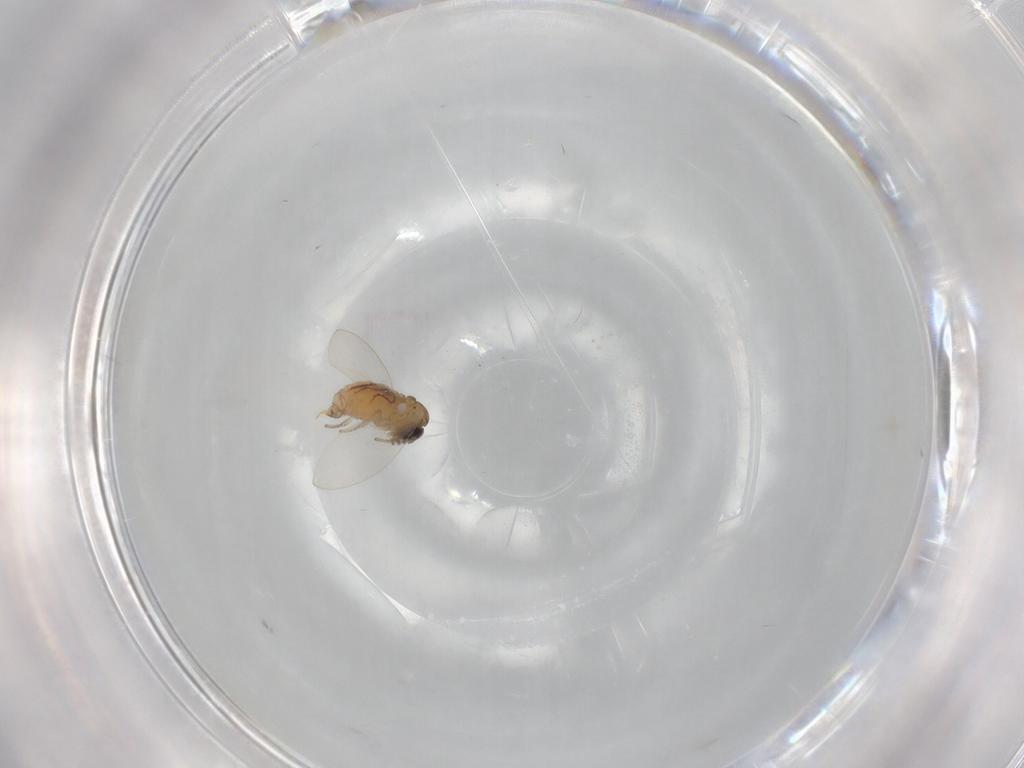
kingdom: Animalia
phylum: Arthropoda
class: Insecta
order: Diptera
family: Psychodidae
